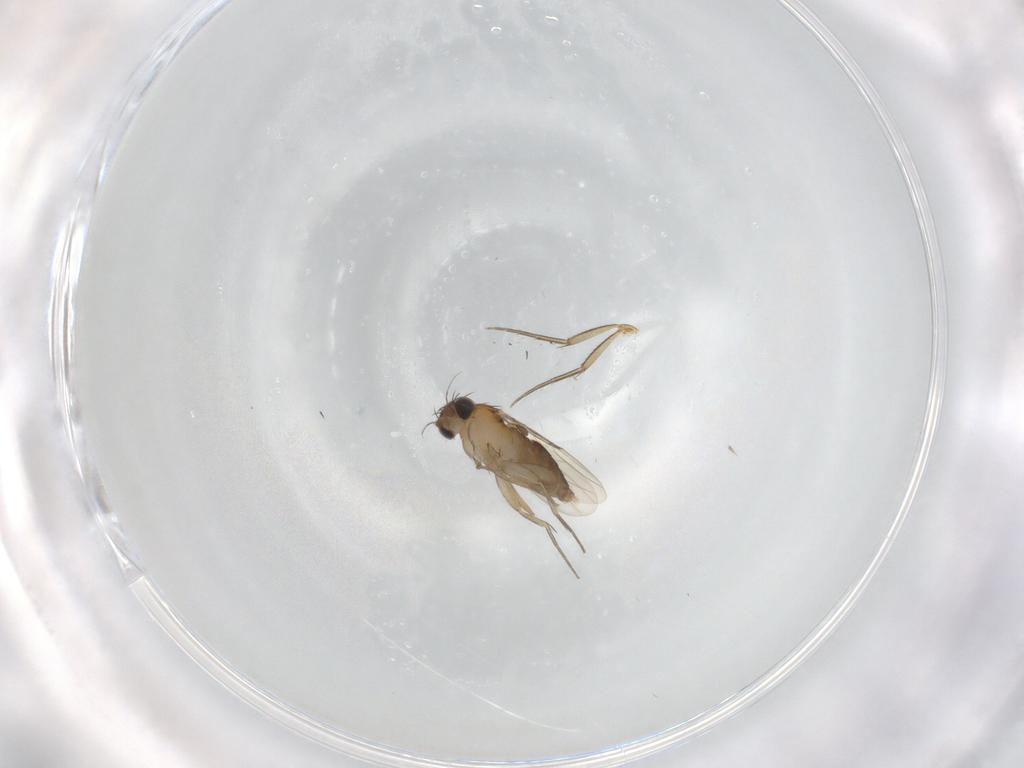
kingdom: Animalia
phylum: Arthropoda
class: Insecta
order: Diptera
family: Phoridae
